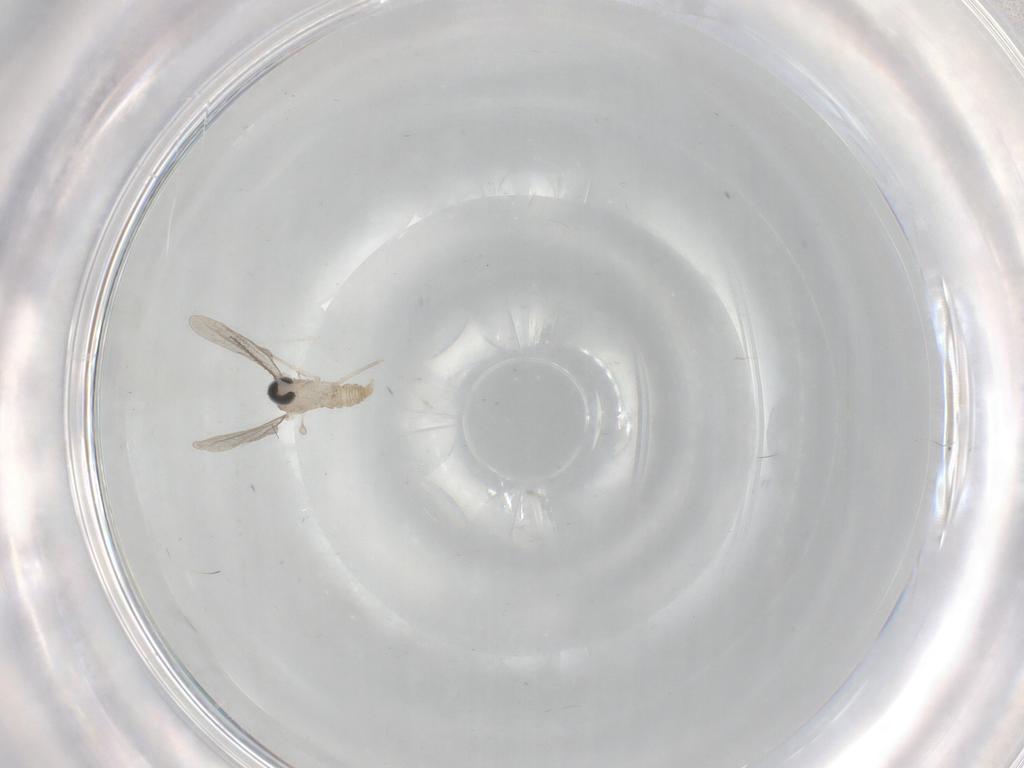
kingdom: Animalia
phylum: Arthropoda
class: Insecta
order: Diptera
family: Cecidomyiidae
